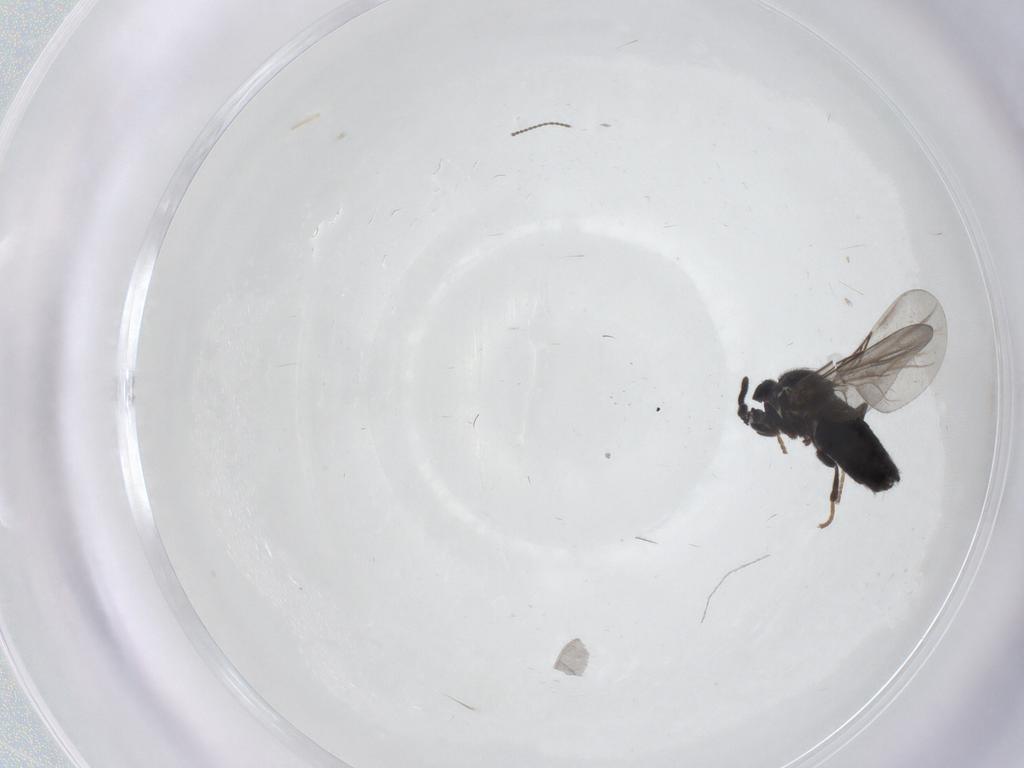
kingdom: Animalia
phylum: Arthropoda
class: Insecta
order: Diptera
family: Scatopsidae
